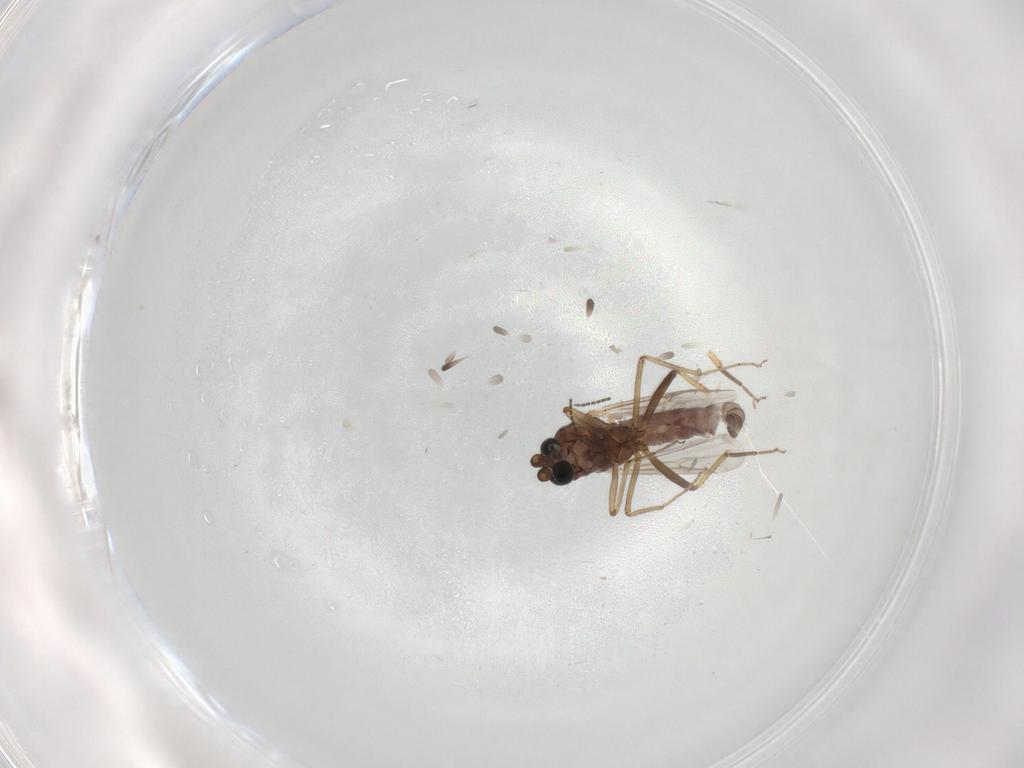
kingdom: Animalia
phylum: Arthropoda
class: Insecta
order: Diptera
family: Ceratopogonidae
